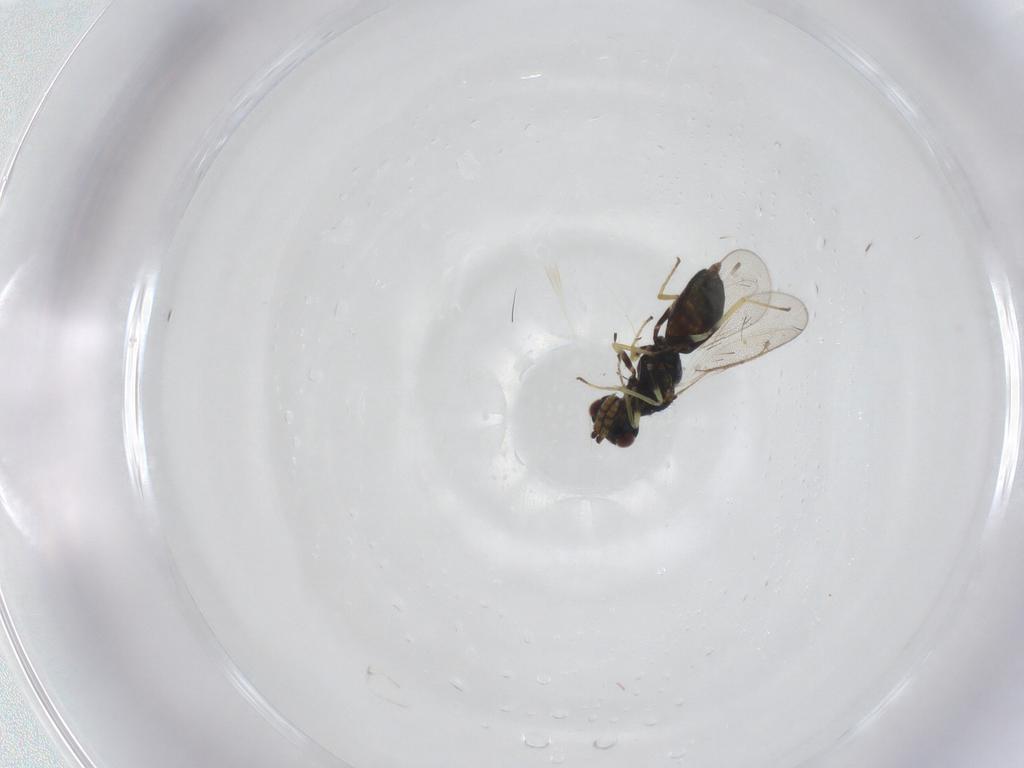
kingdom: Animalia
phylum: Arthropoda
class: Insecta
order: Hymenoptera
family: Eulophidae
